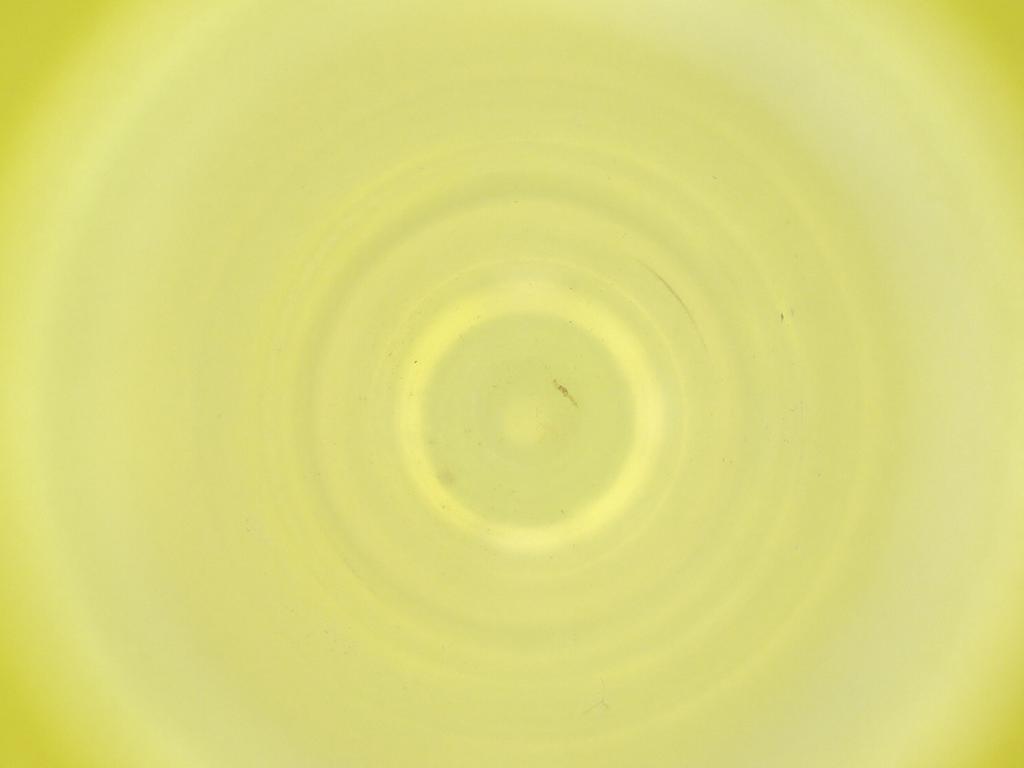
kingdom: Animalia
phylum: Arthropoda
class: Insecta
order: Diptera
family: Cecidomyiidae
